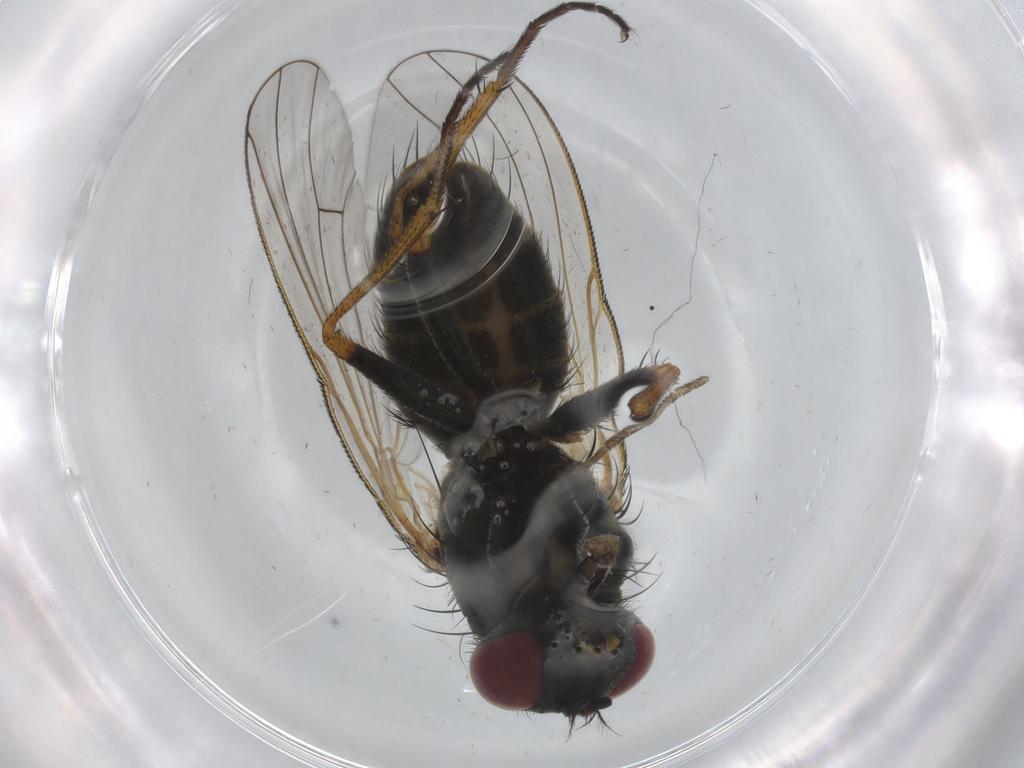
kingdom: Animalia
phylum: Arthropoda
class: Insecta
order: Diptera
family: Muscidae
